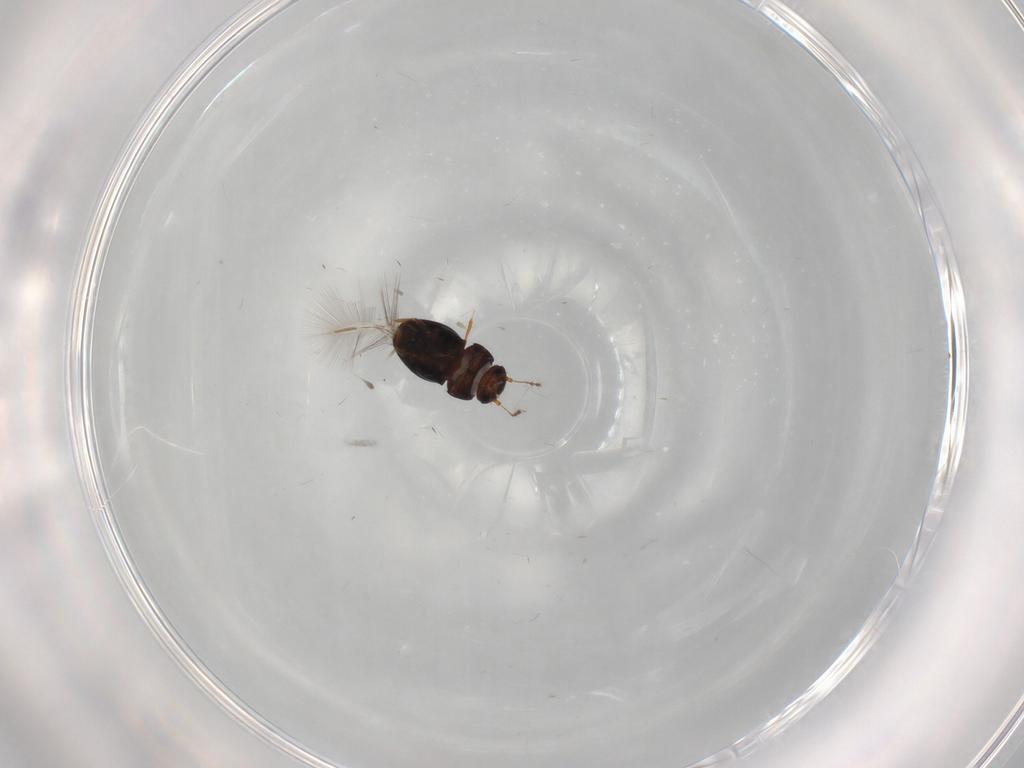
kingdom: Animalia
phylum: Arthropoda
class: Insecta
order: Coleoptera
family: Ptiliidae
